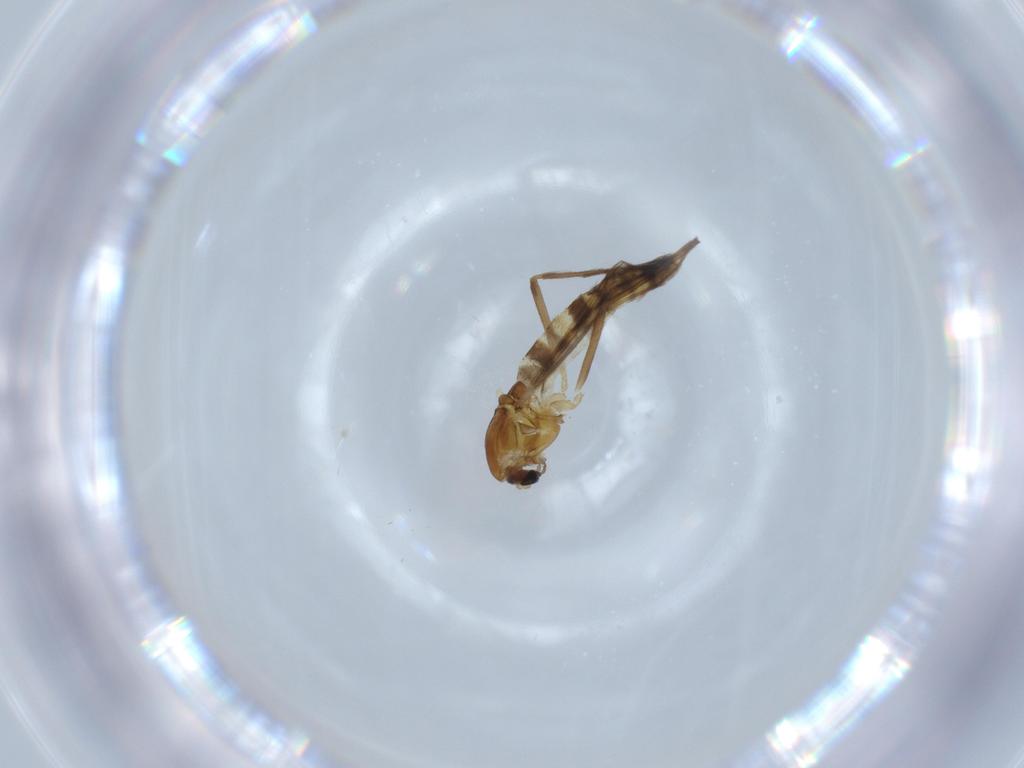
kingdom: Animalia
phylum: Arthropoda
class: Insecta
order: Diptera
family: Chironomidae
